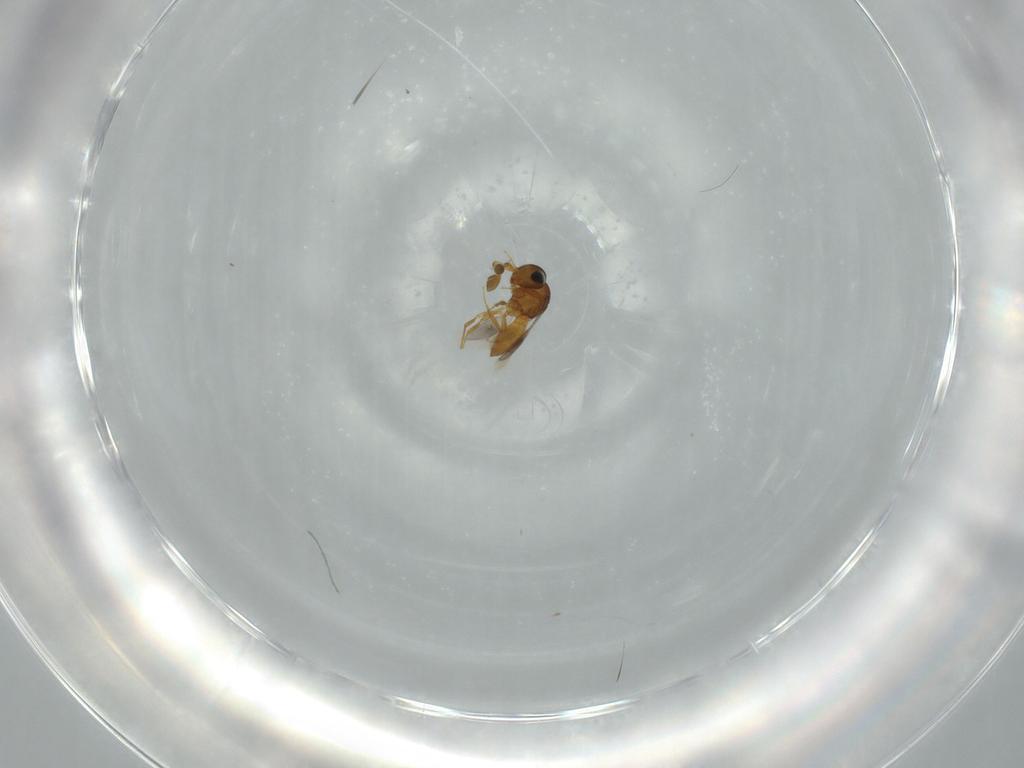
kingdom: Animalia
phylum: Arthropoda
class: Insecta
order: Hymenoptera
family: Scelionidae
